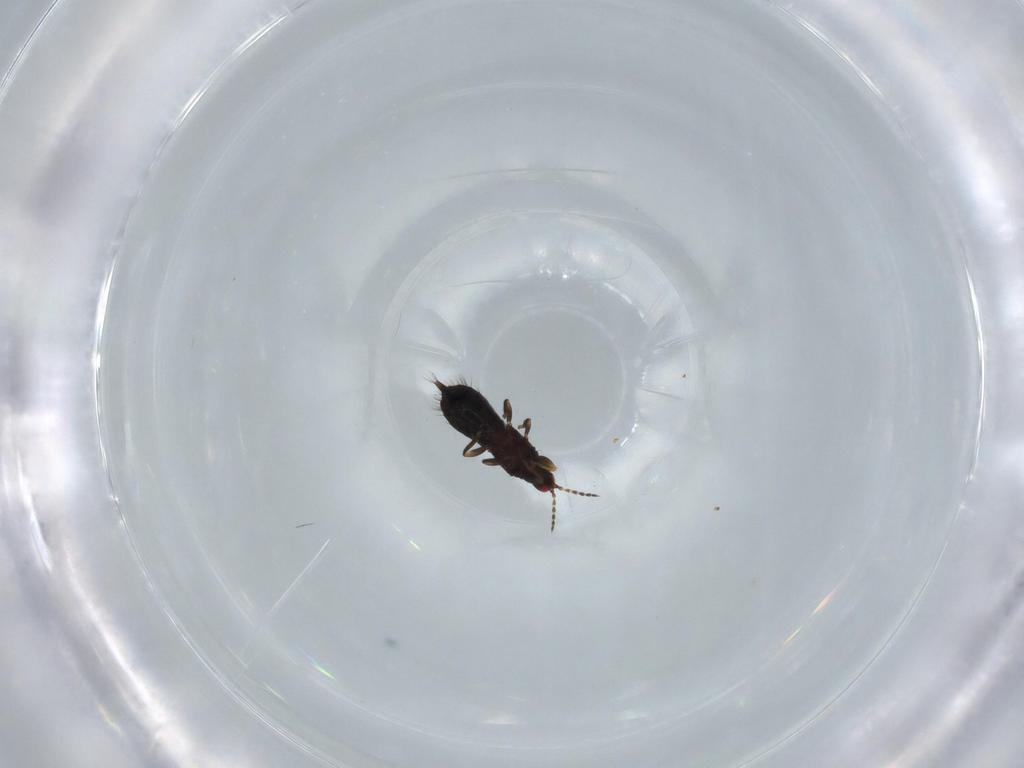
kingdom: Animalia
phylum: Arthropoda
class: Insecta
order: Thysanoptera
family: Phlaeothripidae
